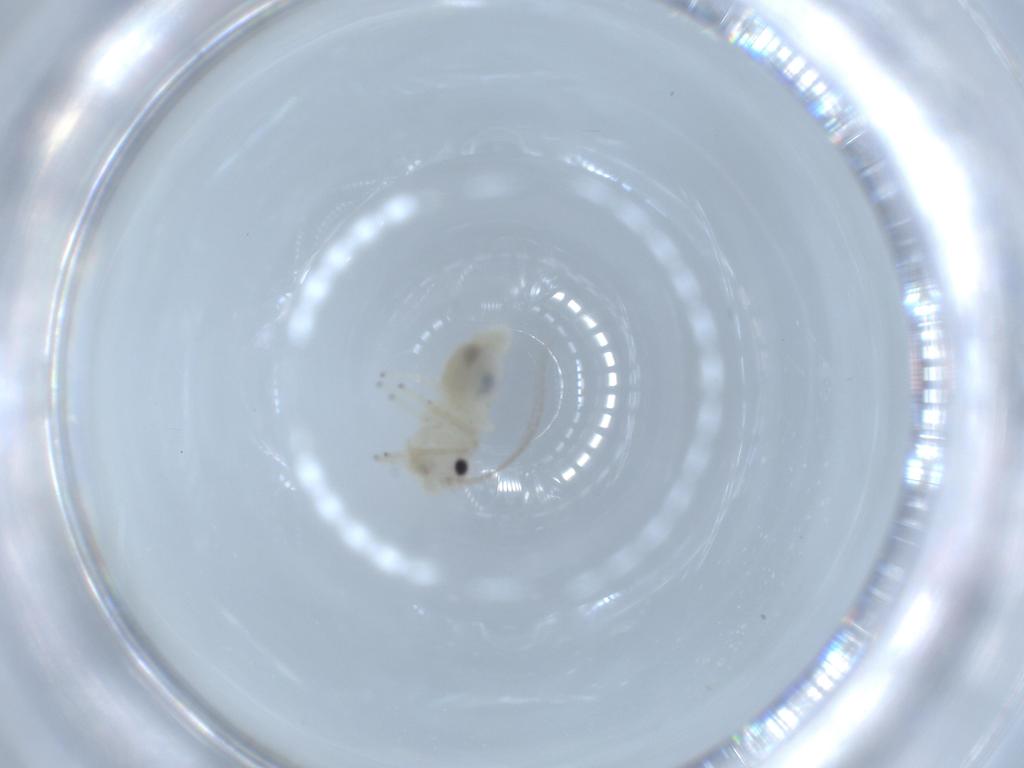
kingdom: Animalia
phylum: Arthropoda
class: Insecta
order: Psocodea
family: Caeciliusidae
